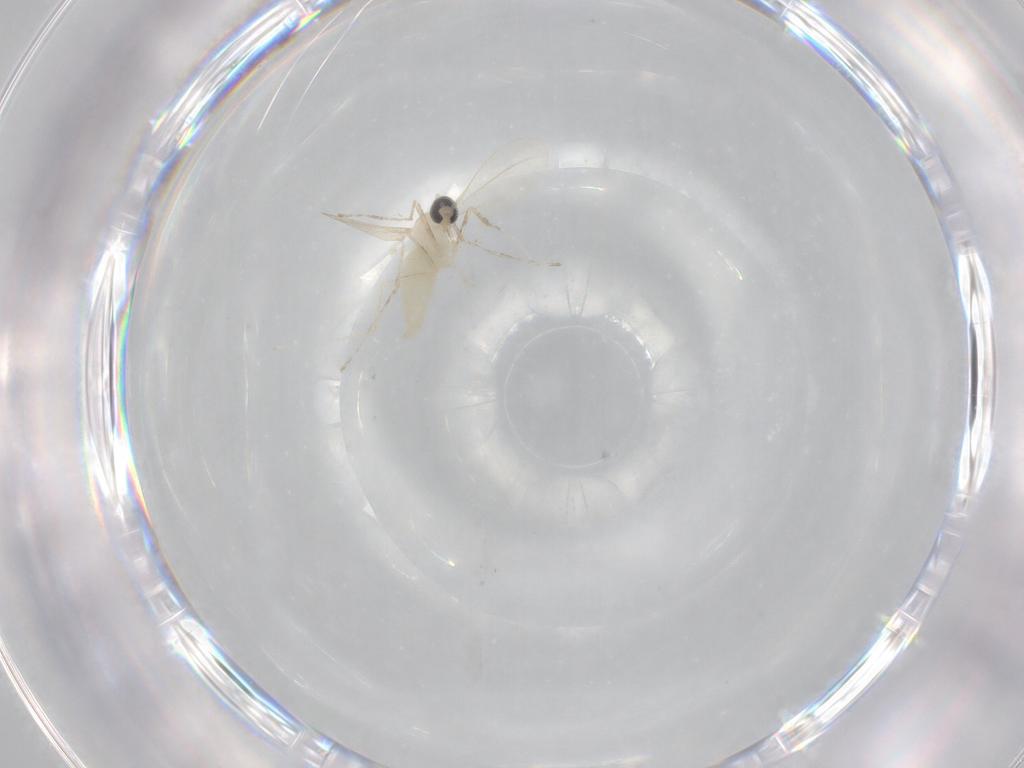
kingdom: Animalia
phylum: Arthropoda
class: Insecta
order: Diptera
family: Cecidomyiidae
